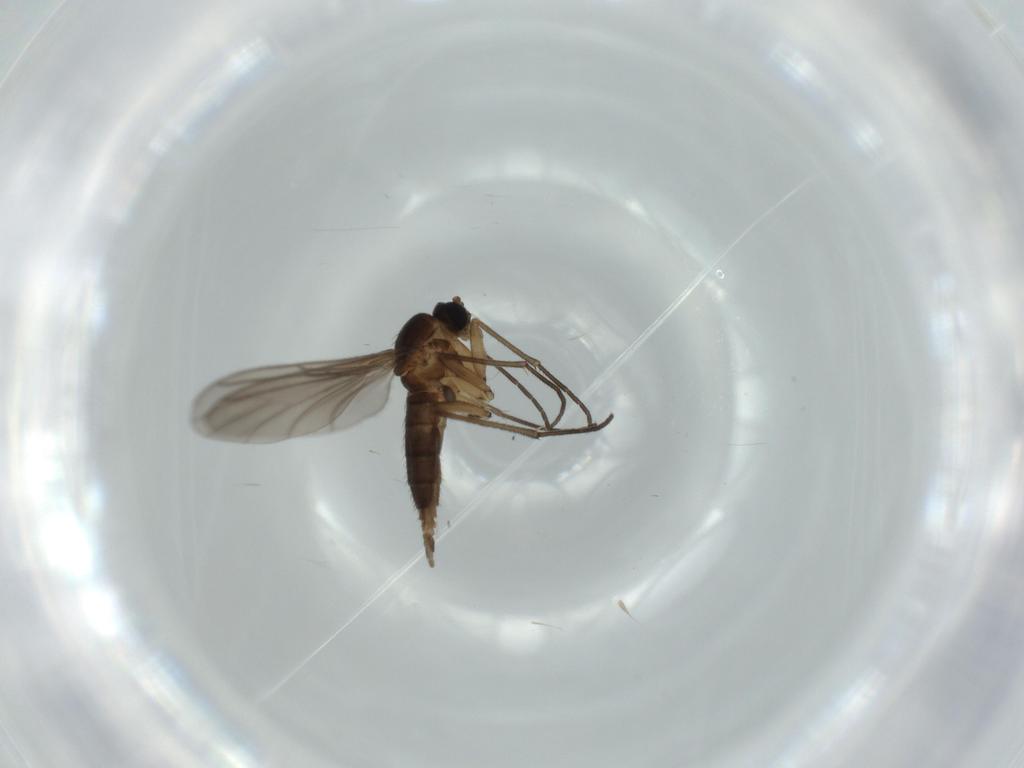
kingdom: Animalia
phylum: Arthropoda
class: Insecta
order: Diptera
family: Sciaridae
